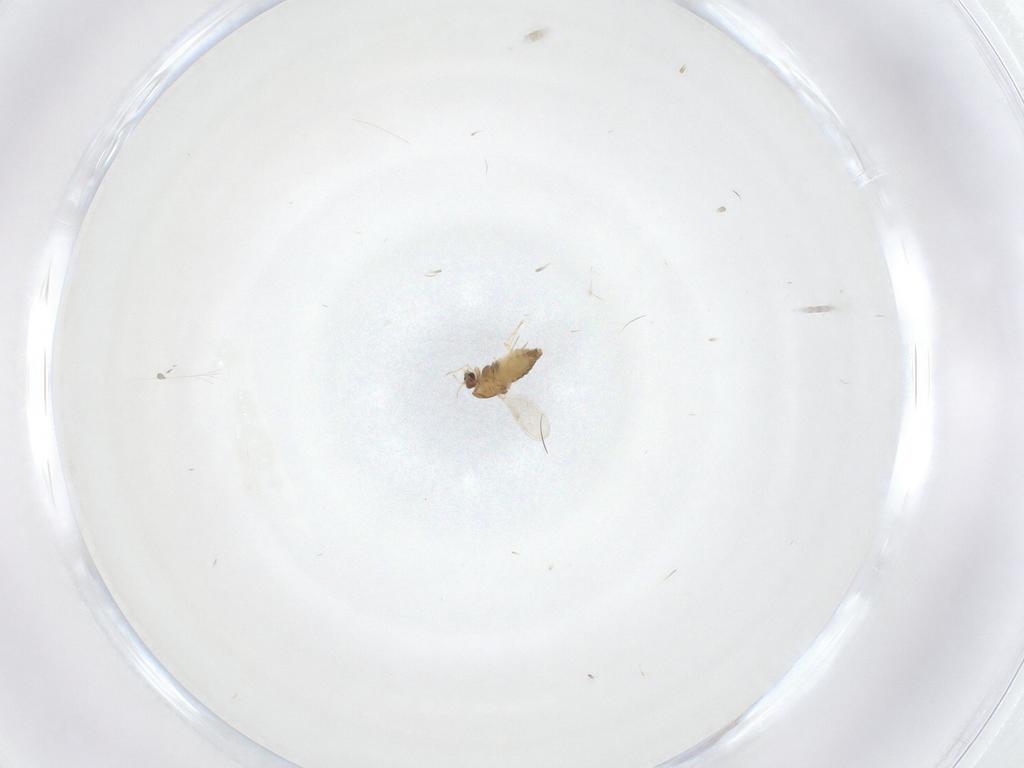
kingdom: Animalia
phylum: Arthropoda
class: Insecta
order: Diptera
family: Chironomidae
